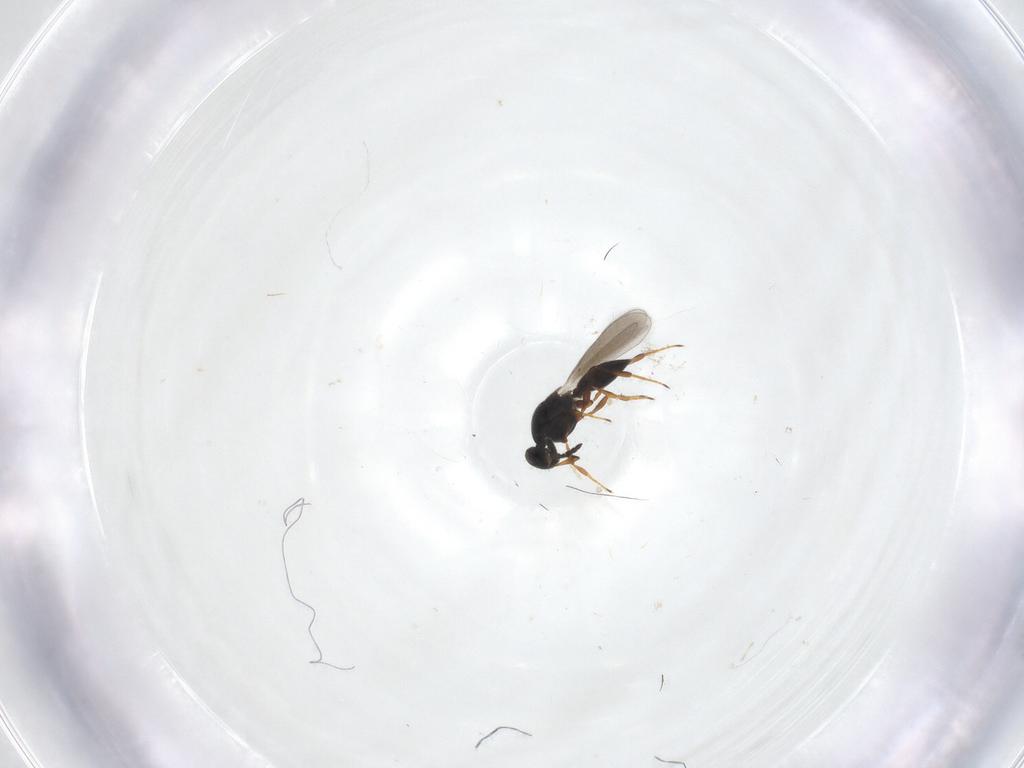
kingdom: Animalia
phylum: Arthropoda
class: Insecta
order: Hymenoptera
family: Platygastridae
